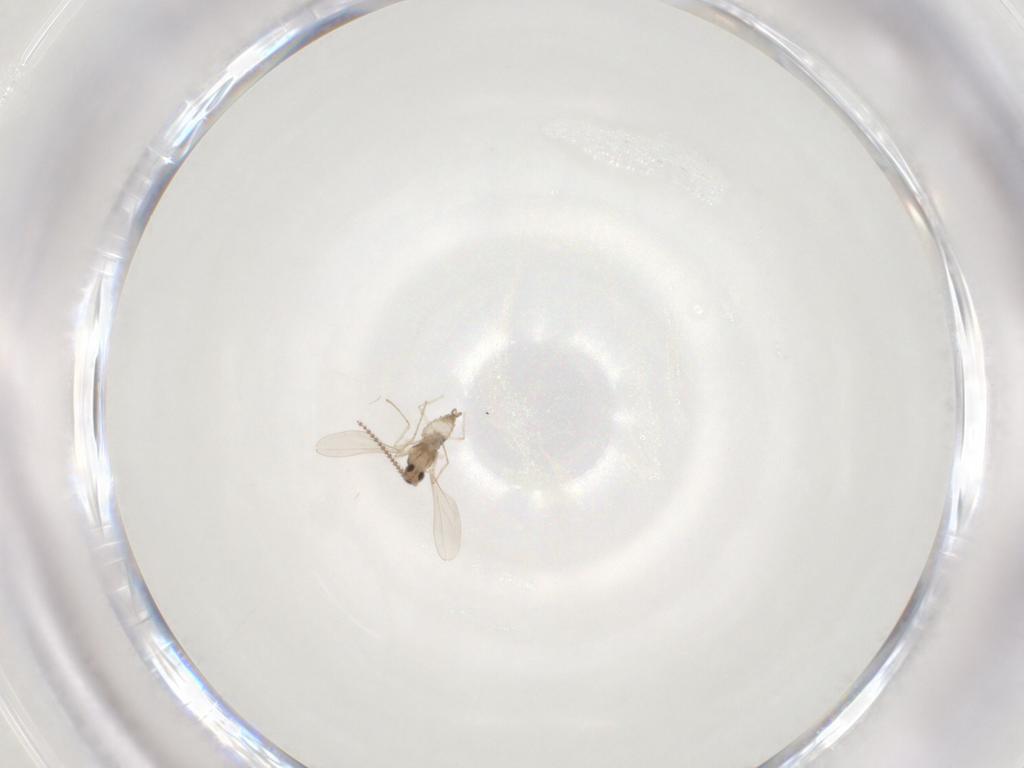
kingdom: Animalia
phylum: Arthropoda
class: Insecta
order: Diptera
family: Cecidomyiidae
